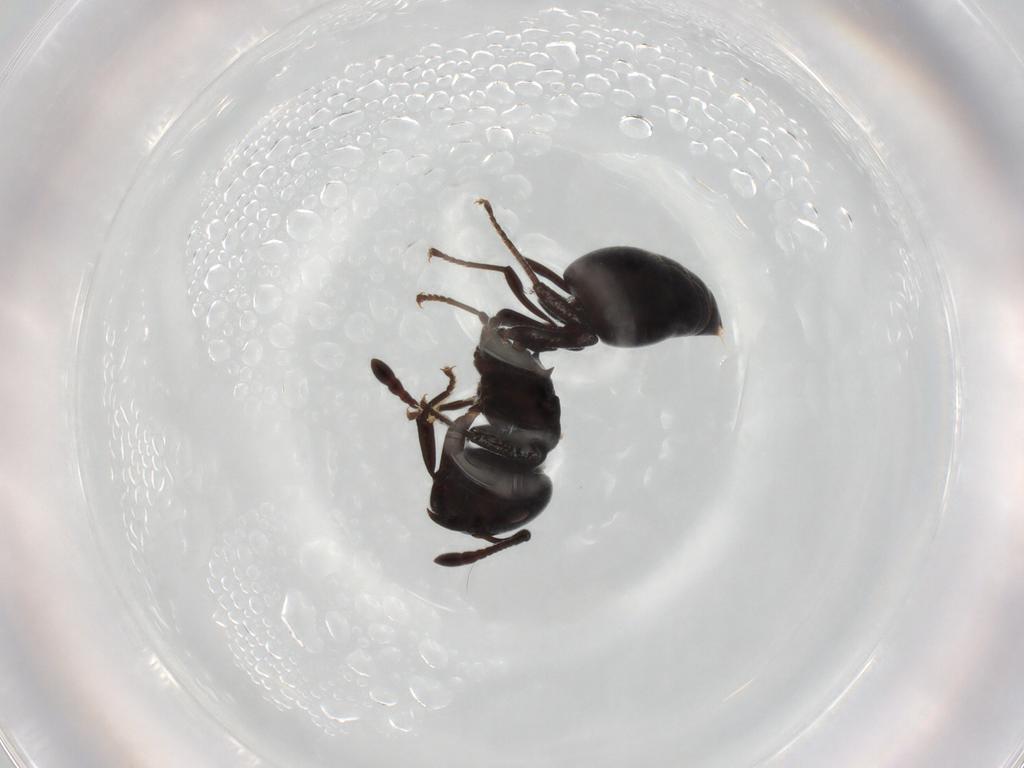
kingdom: Animalia
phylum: Arthropoda
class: Insecta
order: Hymenoptera
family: Formicidae
